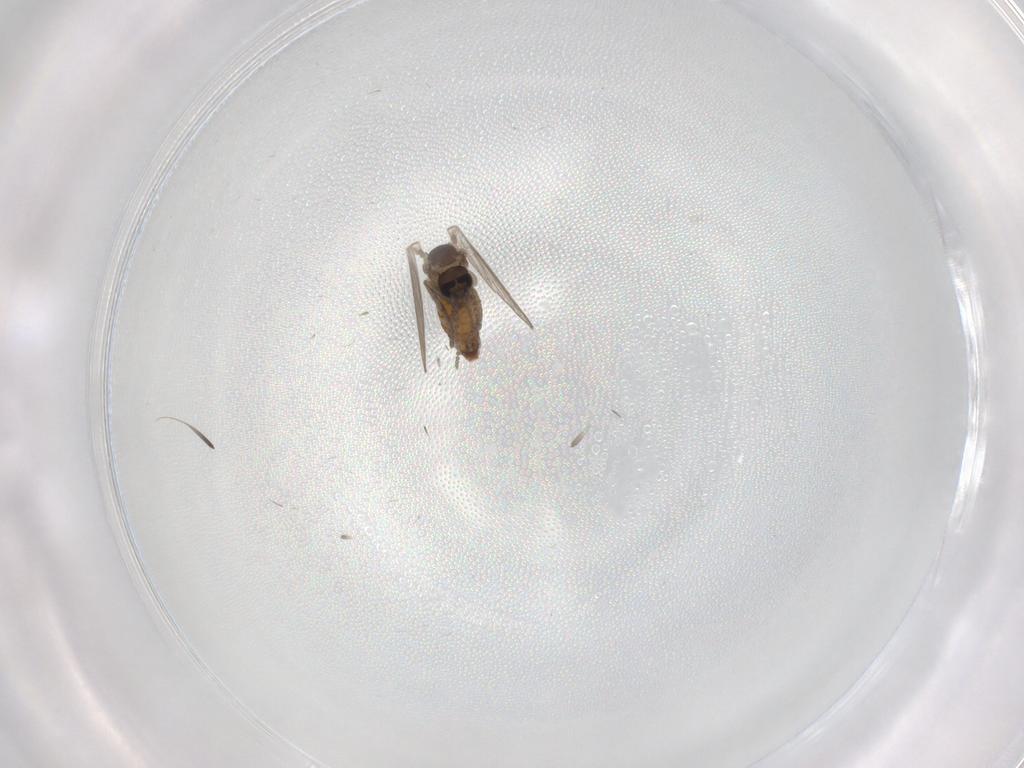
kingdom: Animalia
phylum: Arthropoda
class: Insecta
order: Diptera
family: Psychodidae
